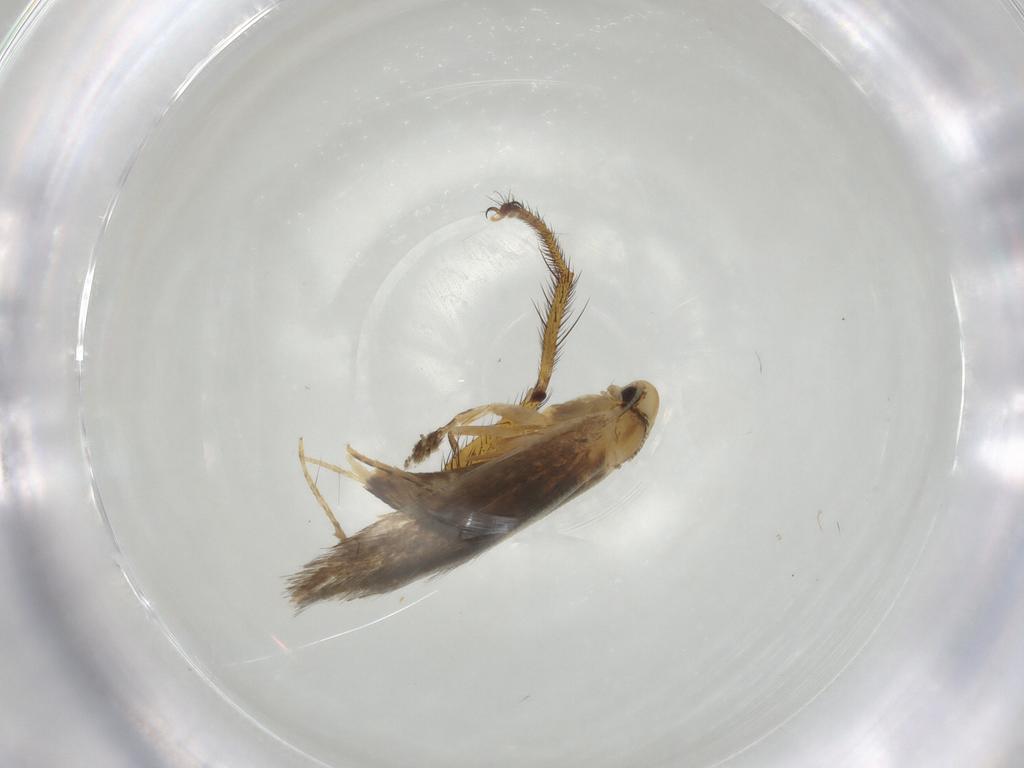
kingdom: Animalia
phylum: Arthropoda
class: Insecta
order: Lepidoptera
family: Tineidae
